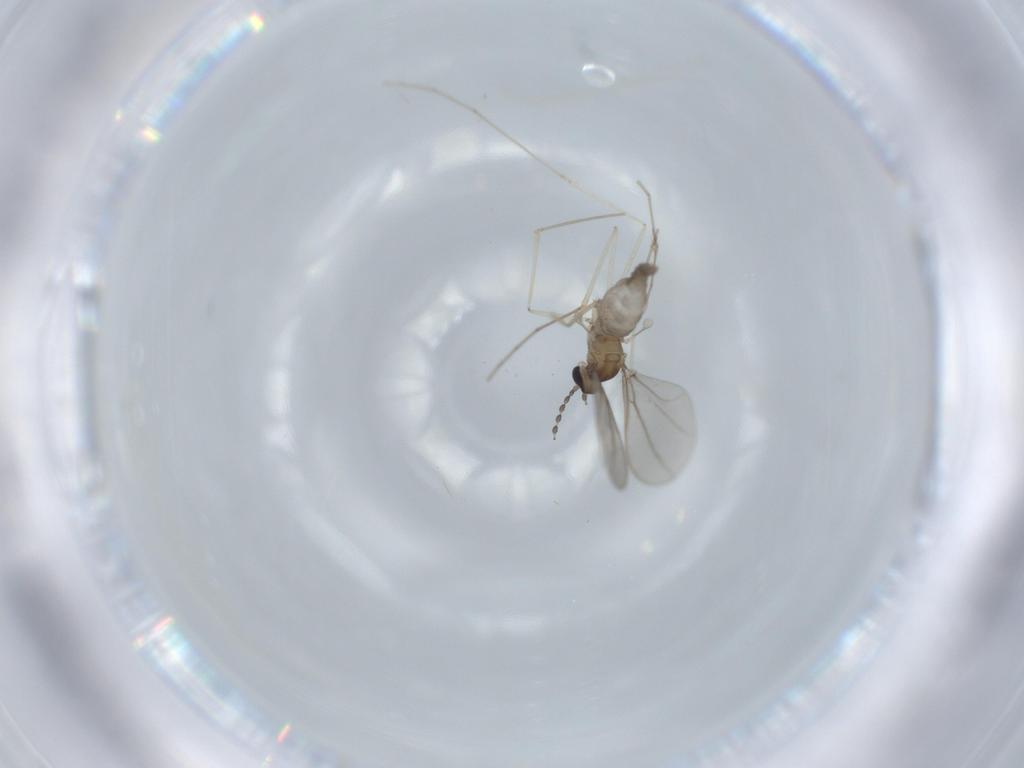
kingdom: Animalia
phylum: Arthropoda
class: Insecta
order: Diptera
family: Cecidomyiidae
